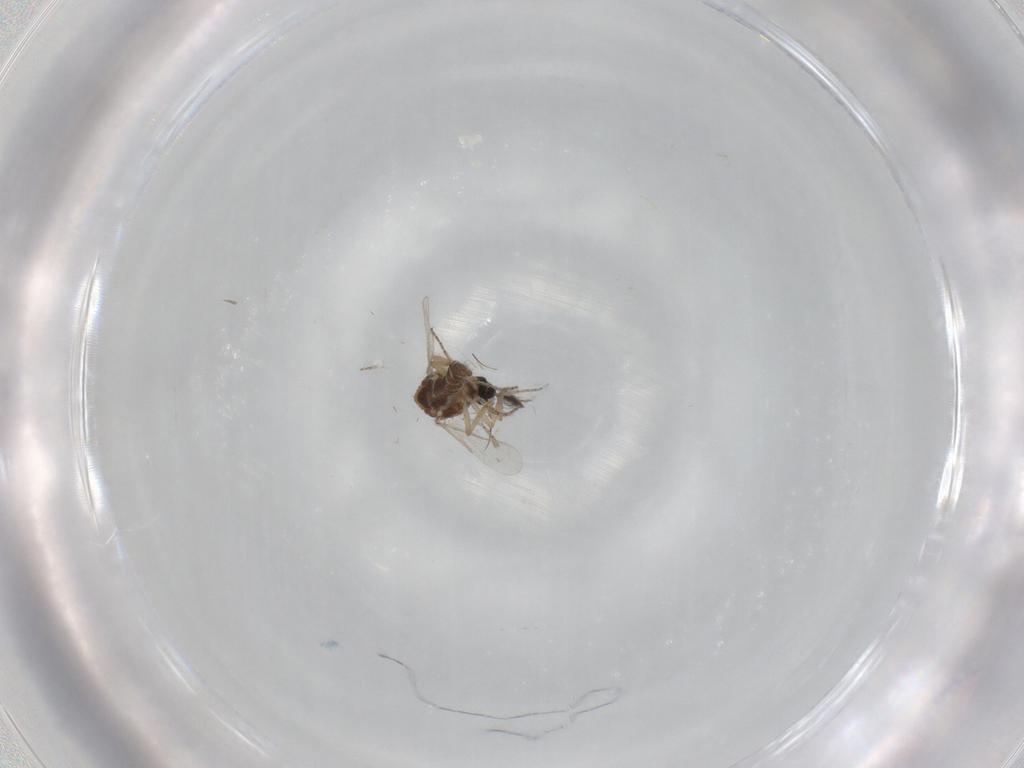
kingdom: Animalia
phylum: Arthropoda
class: Insecta
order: Diptera
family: Ceratopogonidae
